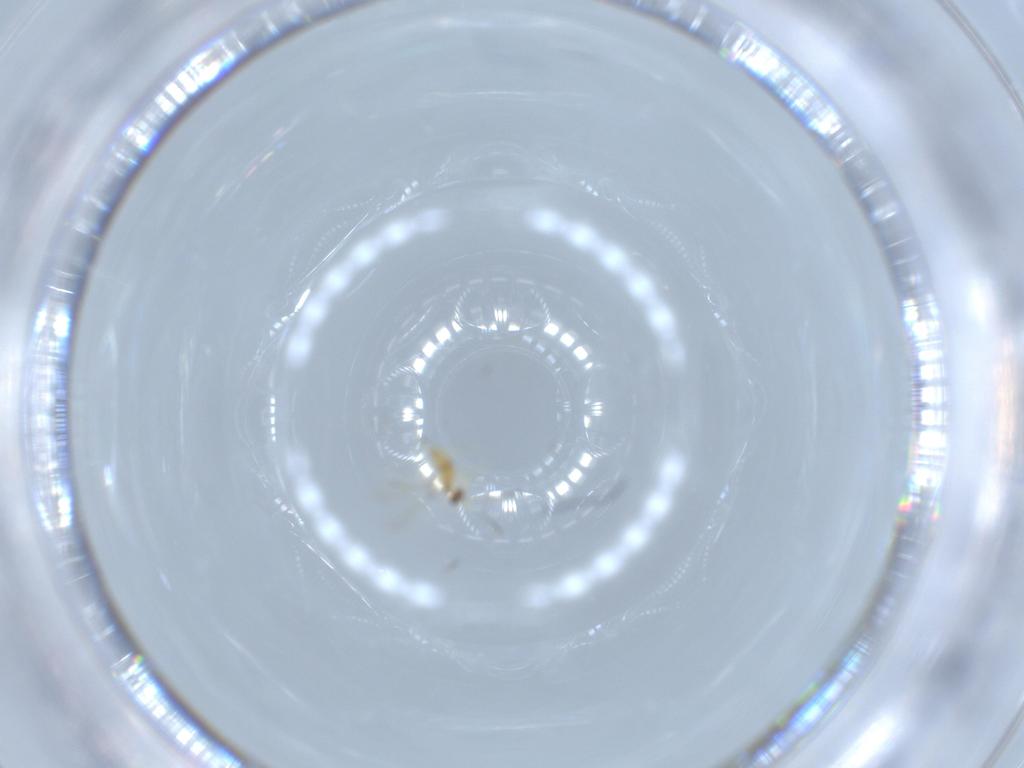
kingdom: Animalia
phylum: Arthropoda
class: Insecta
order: Hymenoptera
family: Mymaridae
